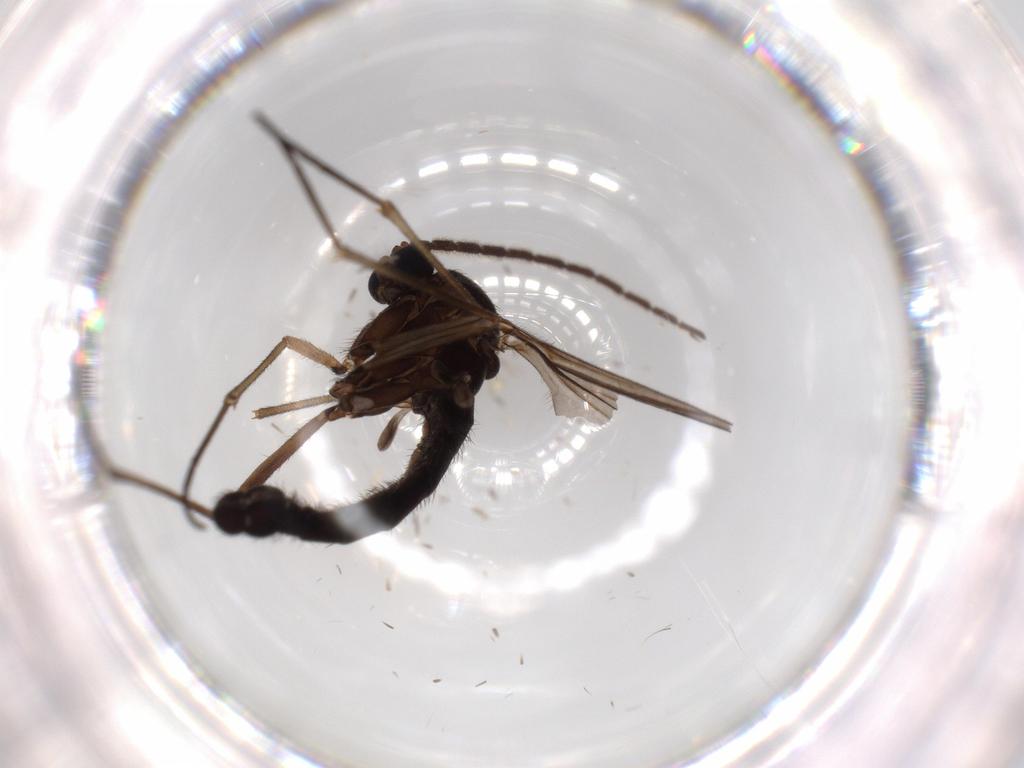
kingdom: Animalia
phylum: Arthropoda
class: Insecta
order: Diptera
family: Sciaridae
